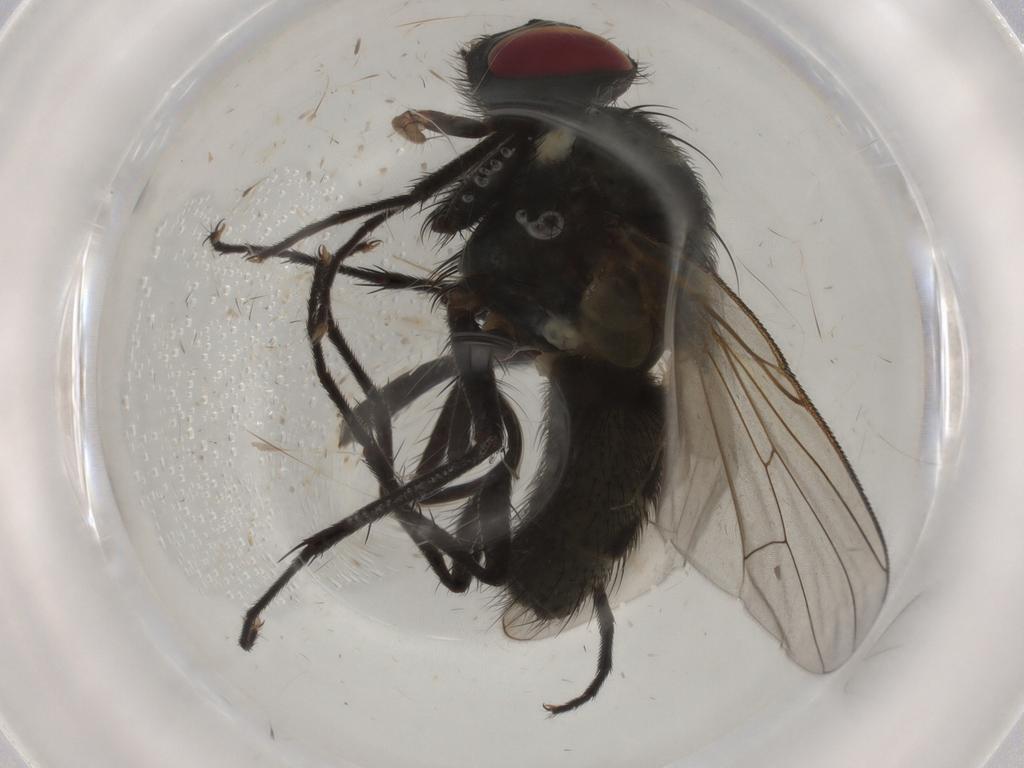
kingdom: Animalia
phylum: Arthropoda
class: Insecta
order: Diptera
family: Muscidae
